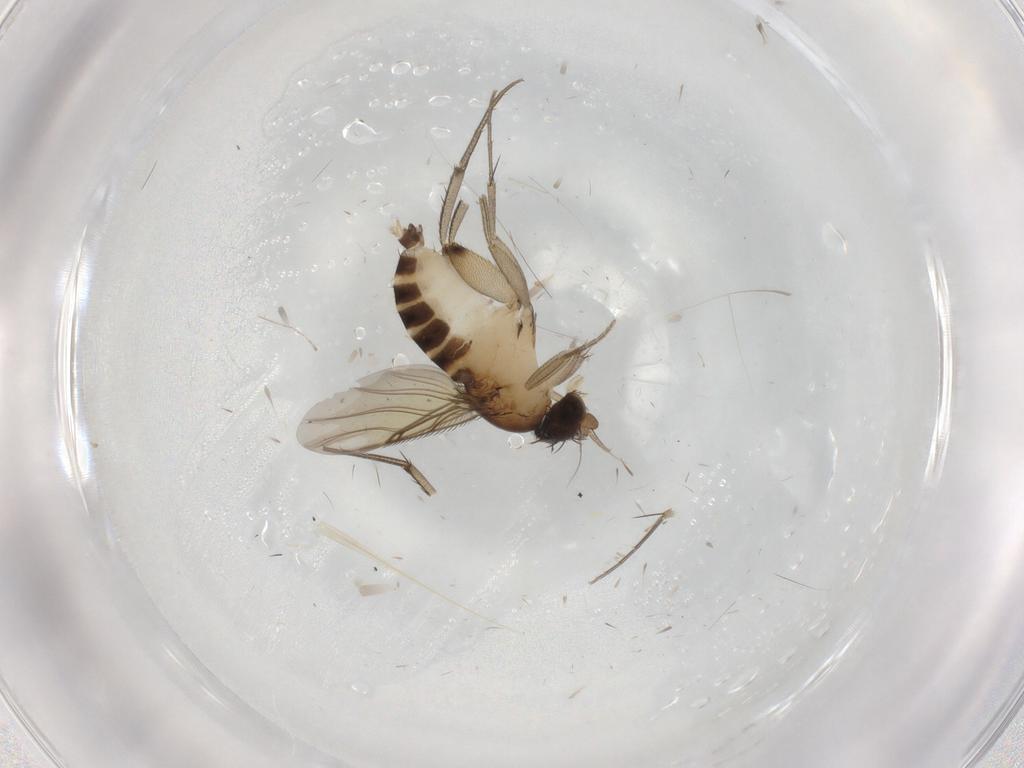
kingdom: Animalia
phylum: Arthropoda
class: Insecta
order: Diptera
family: Phoridae
